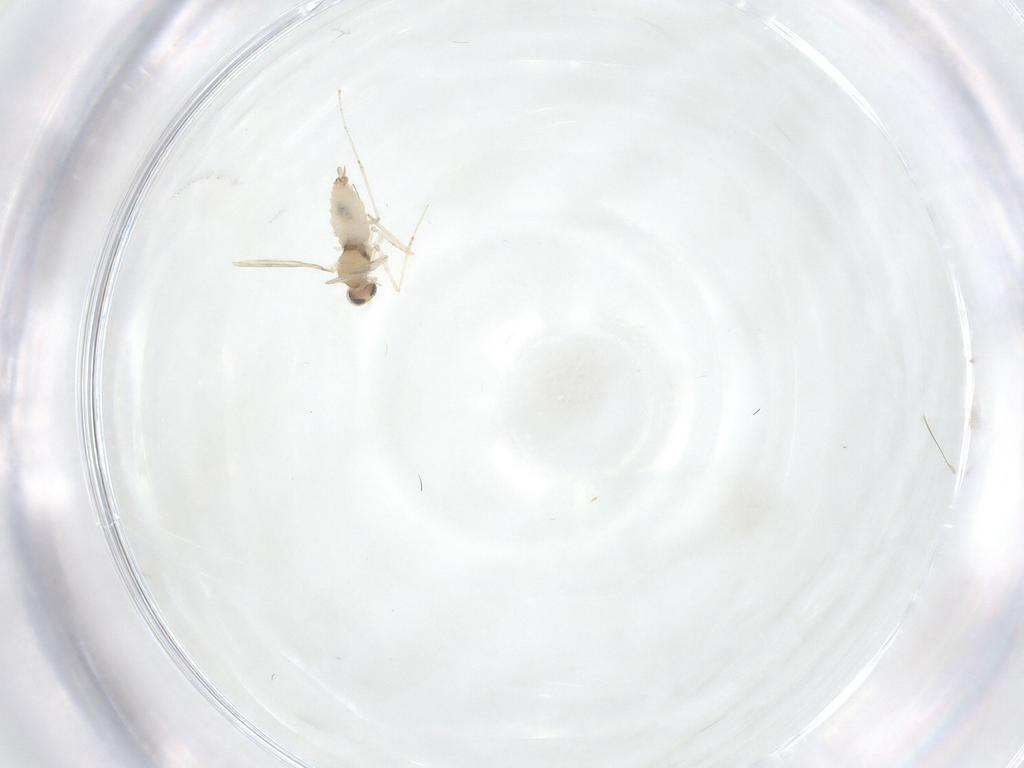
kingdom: Animalia
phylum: Arthropoda
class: Insecta
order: Diptera
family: Cecidomyiidae
